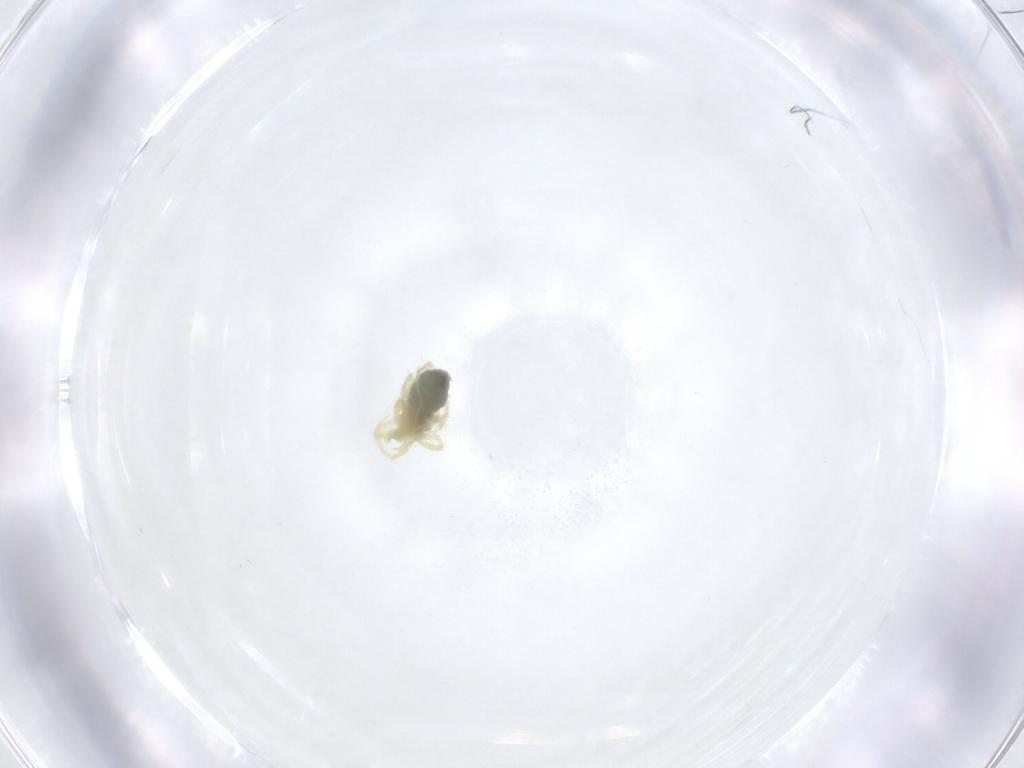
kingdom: Animalia
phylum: Arthropoda
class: Arachnida
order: Trombidiformes
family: Anystidae
